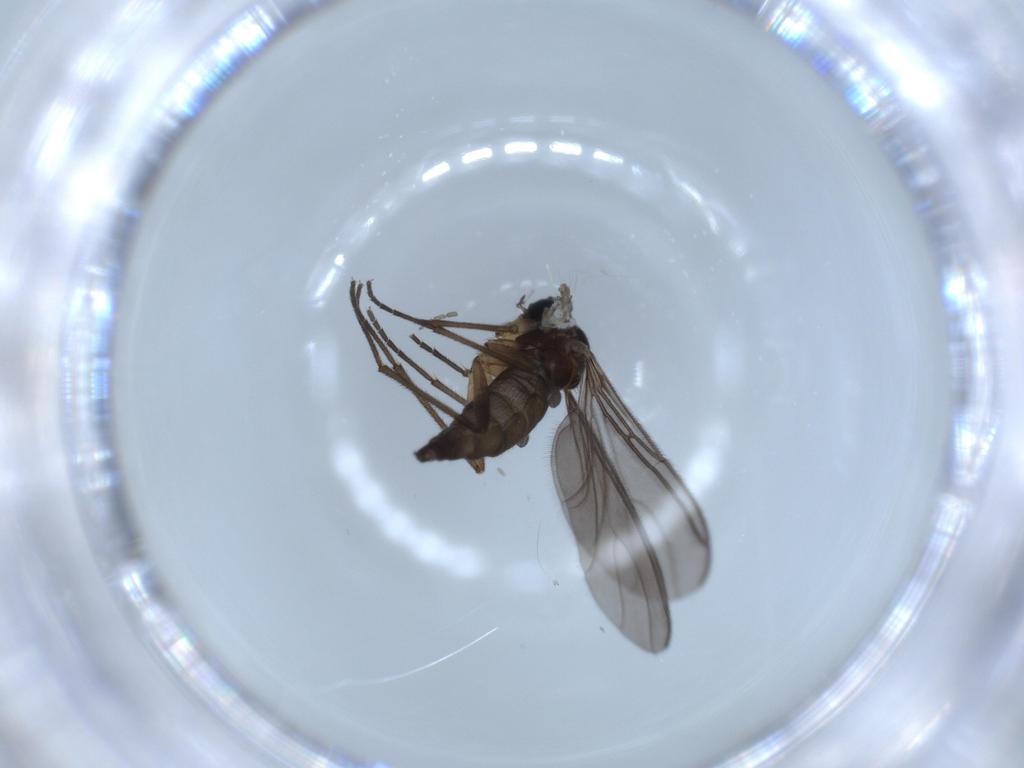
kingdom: Animalia
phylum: Arthropoda
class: Insecta
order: Diptera
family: Sciaridae
